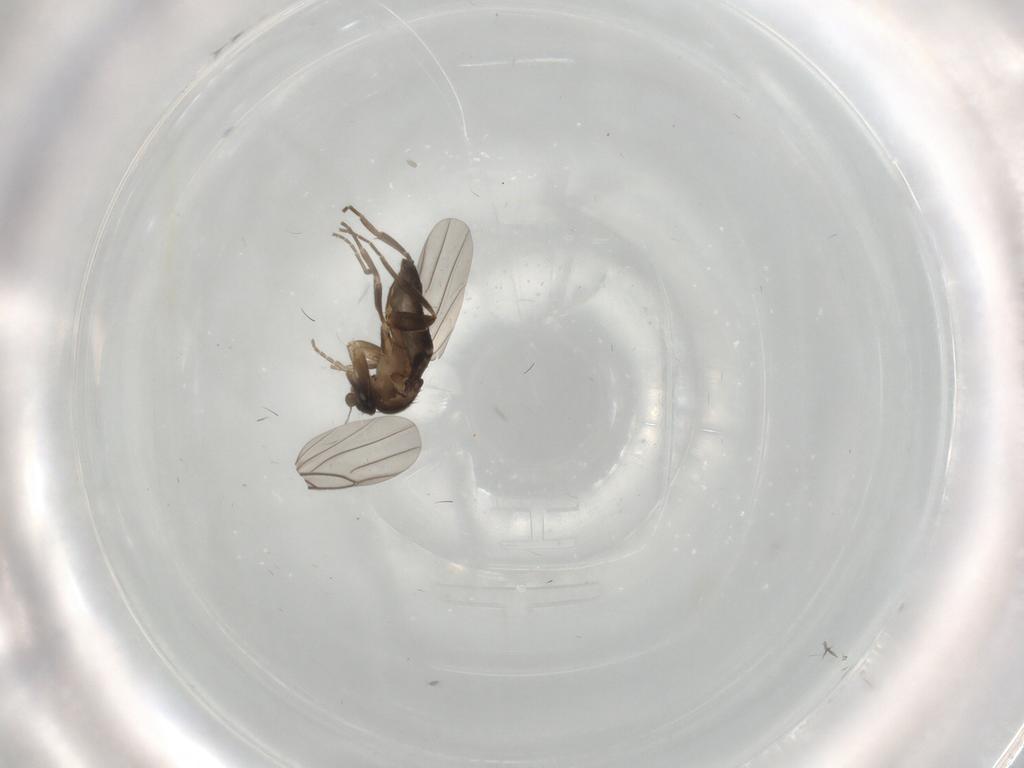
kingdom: Animalia
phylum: Arthropoda
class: Insecta
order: Diptera
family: Cecidomyiidae
